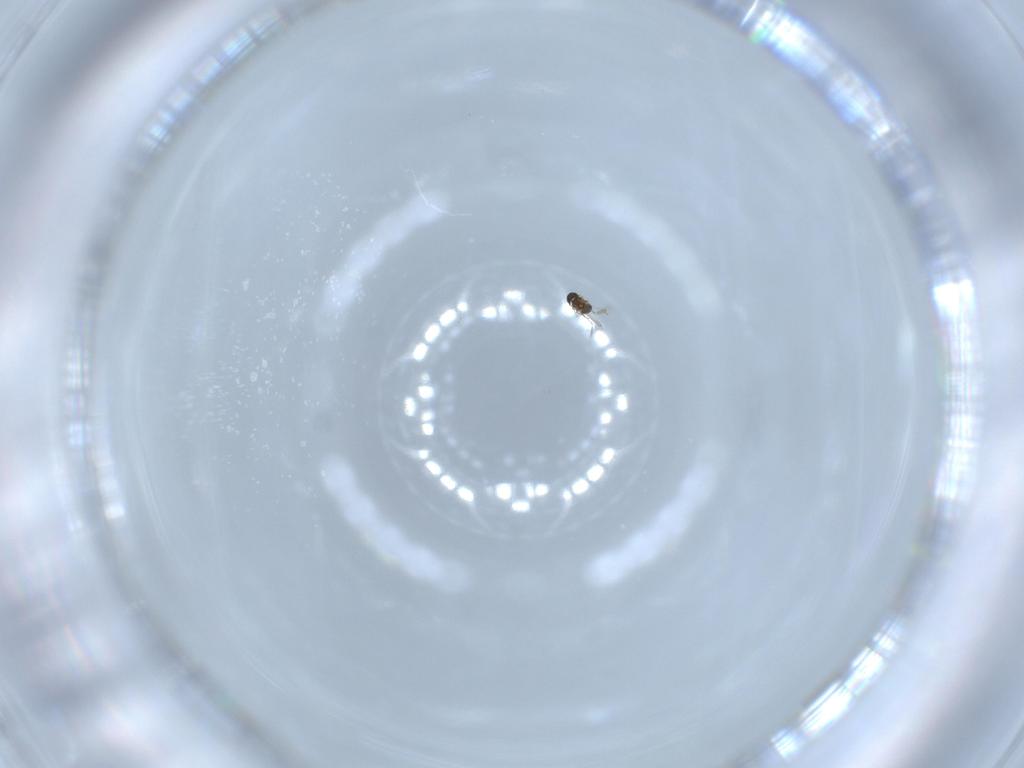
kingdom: Animalia
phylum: Arthropoda
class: Insecta
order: Hymenoptera
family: Mymaridae
